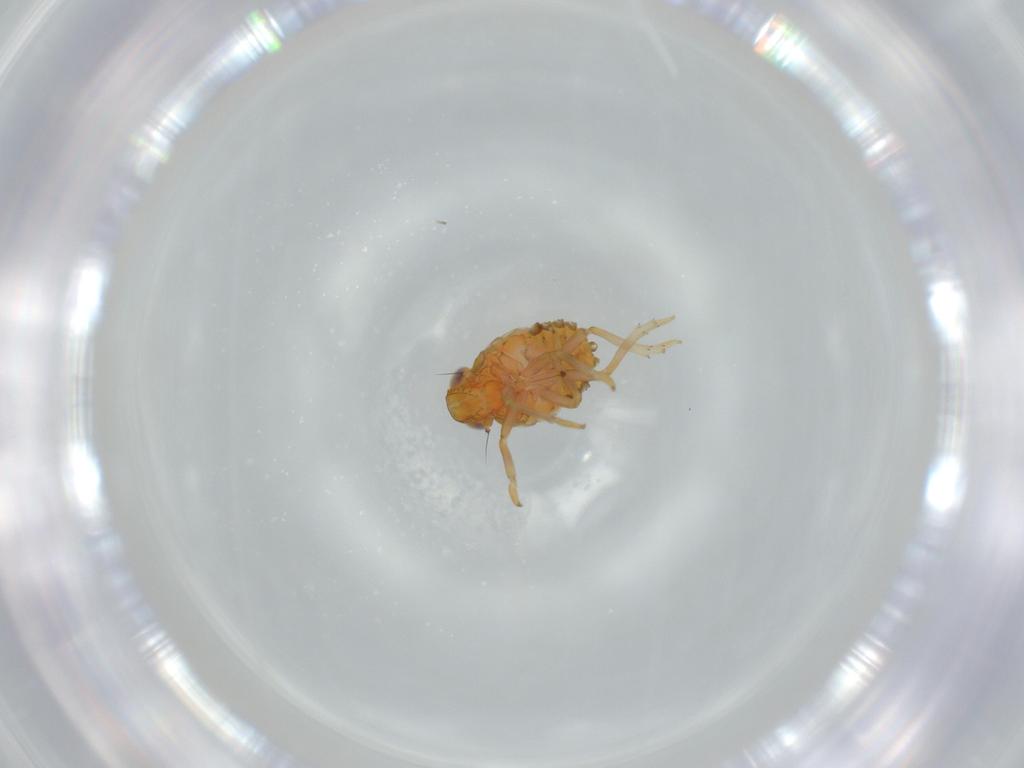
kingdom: Animalia
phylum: Arthropoda
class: Insecta
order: Hemiptera
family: Issidae
